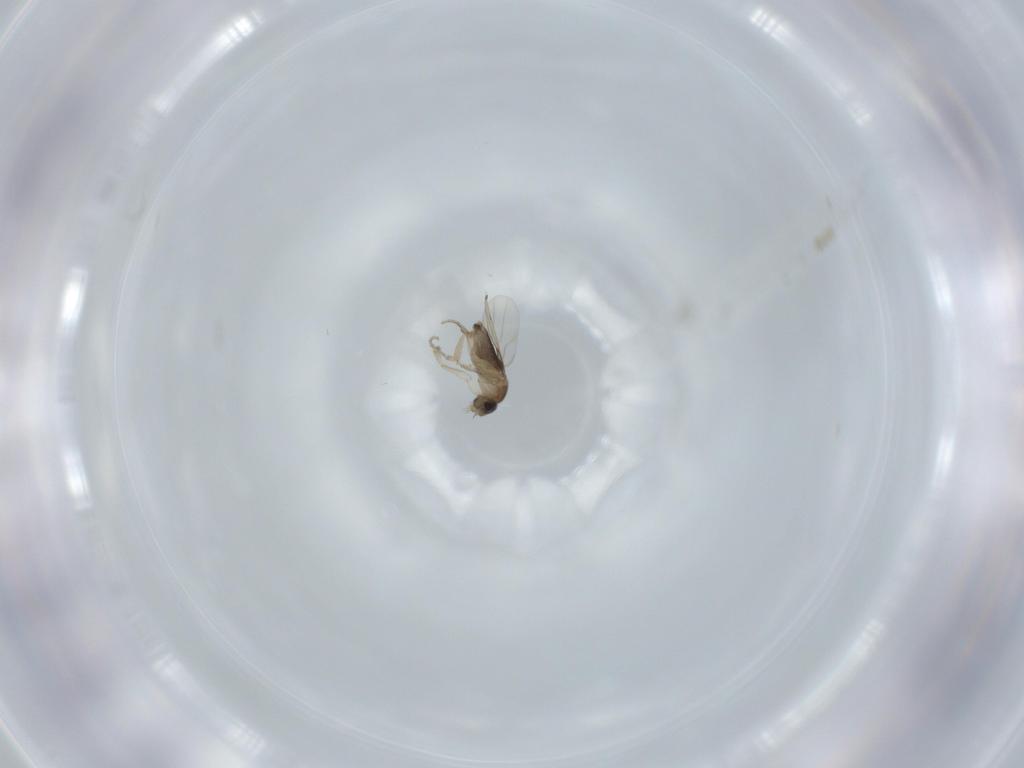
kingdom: Animalia
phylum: Arthropoda
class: Insecta
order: Diptera
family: Phoridae
